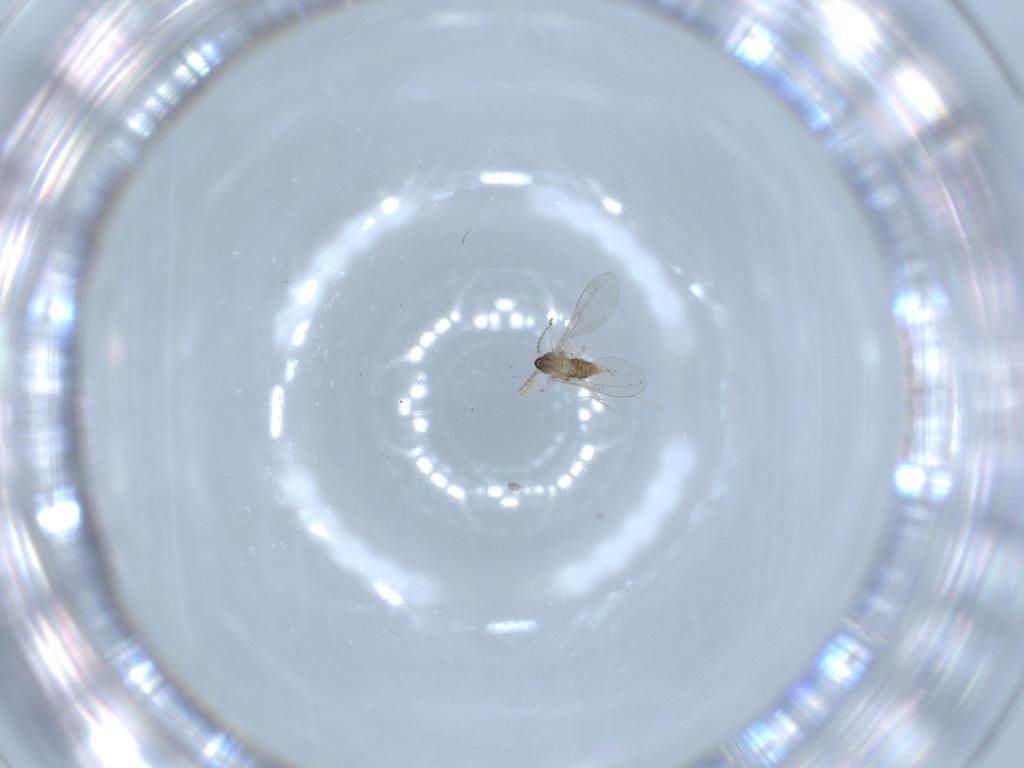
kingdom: Animalia
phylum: Arthropoda
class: Insecta
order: Diptera
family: Cecidomyiidae
